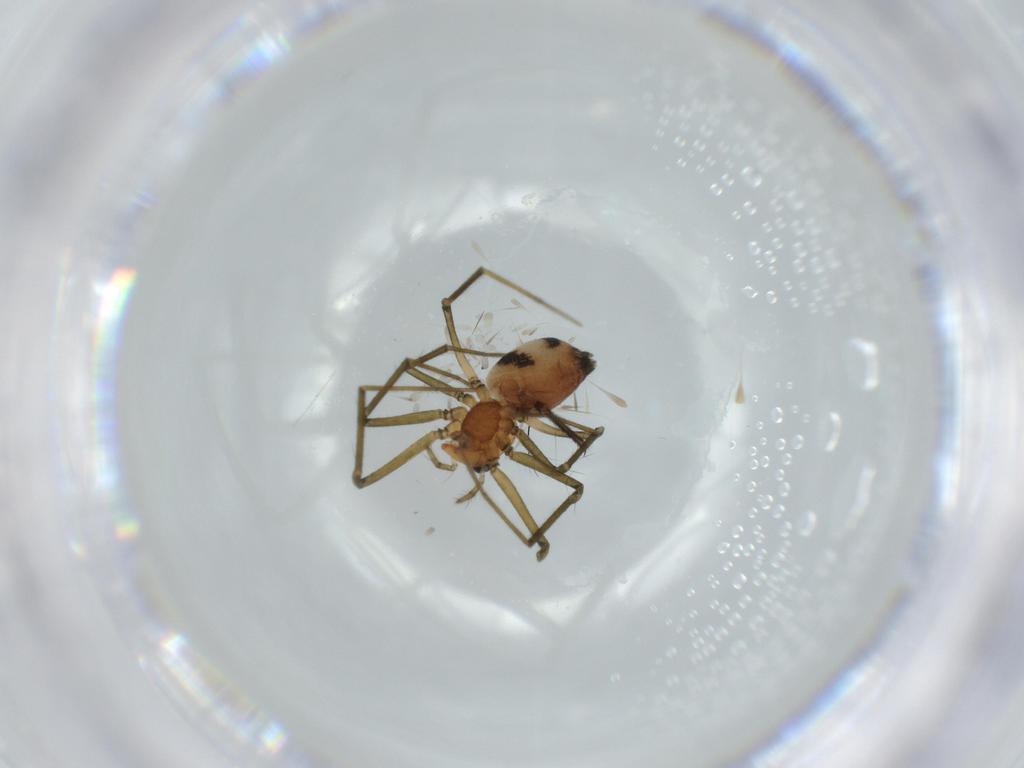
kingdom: Animalia
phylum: Arthropoda
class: Arachnida
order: Araneae
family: Linyphiidae
